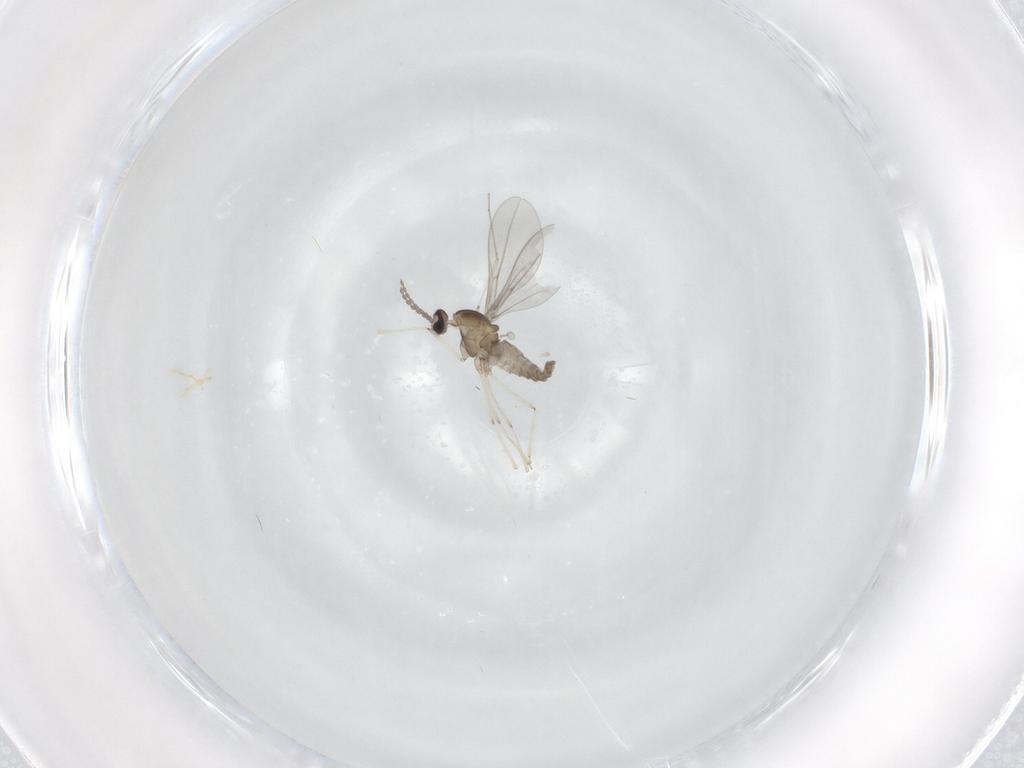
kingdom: Animalia
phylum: Arthropoda
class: Insecta
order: Diptera
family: Cecidomyiidae
